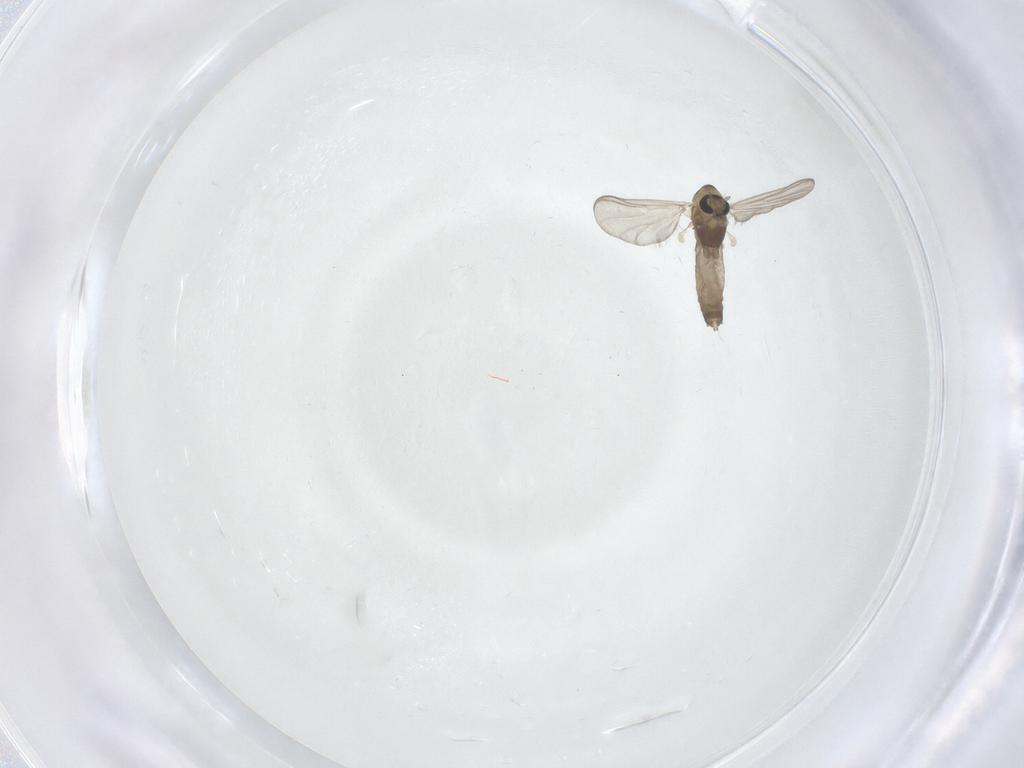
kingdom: Animalia
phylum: Arthropoda
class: Insecta
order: Diptera
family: Chironomidae
